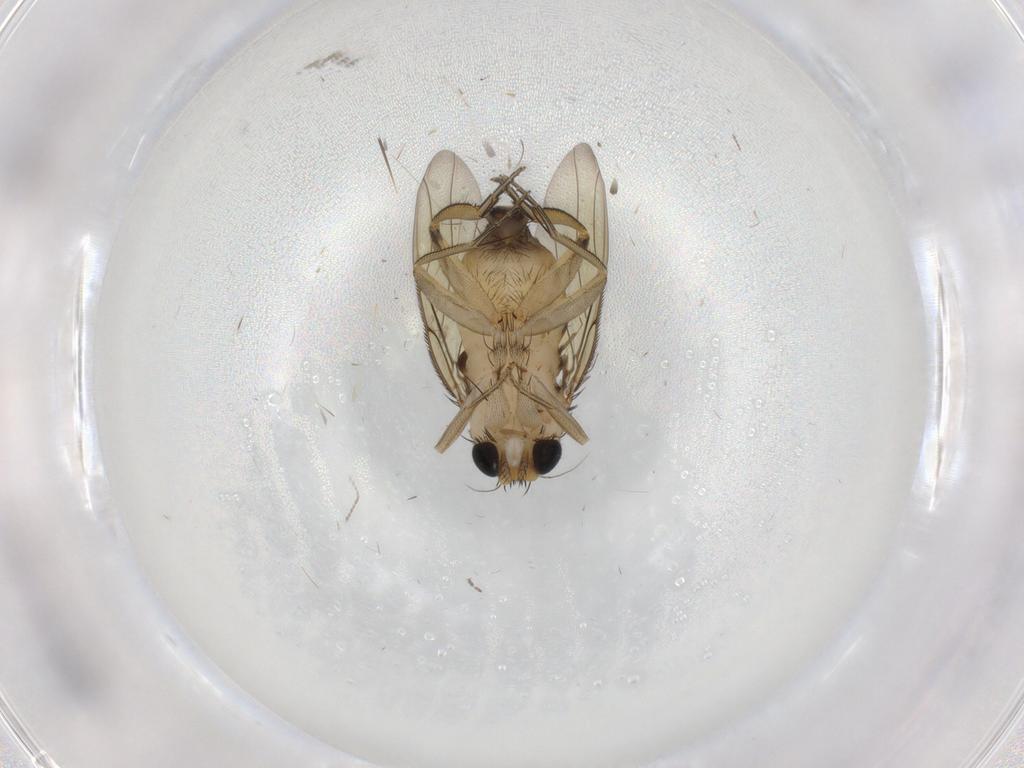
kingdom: Animalia
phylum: Arthropoda
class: Insecta
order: Diptera
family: Phoridae
